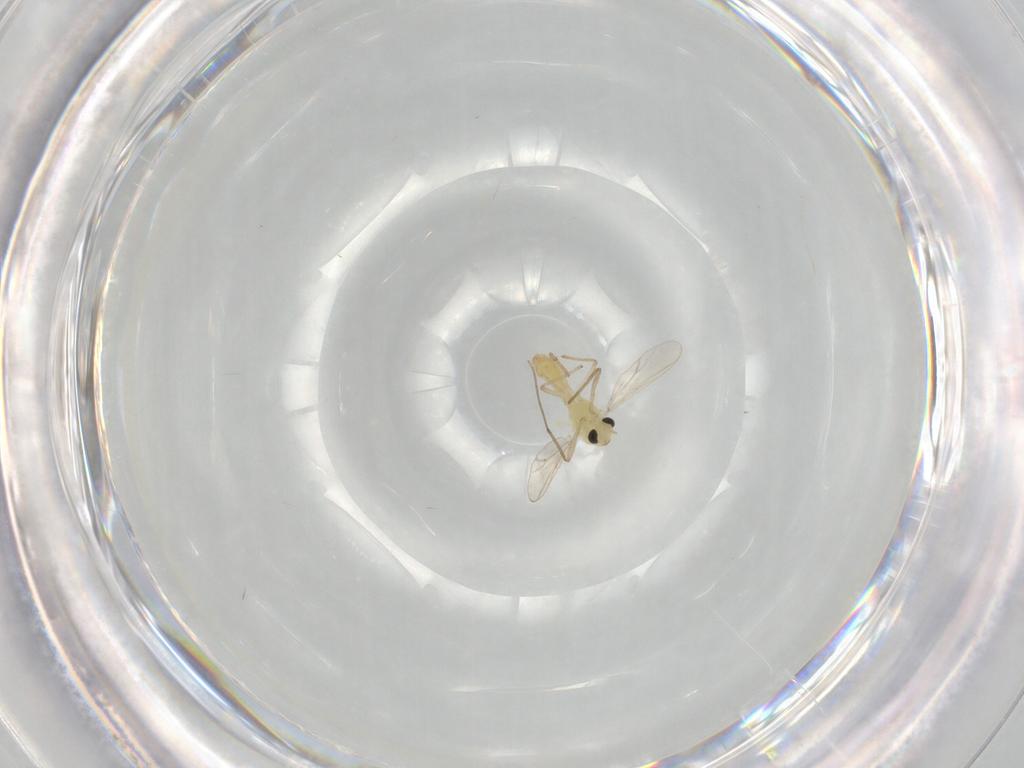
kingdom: Animalia
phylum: Arthropoda
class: Insecta
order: Diptera
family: Chironomidae
